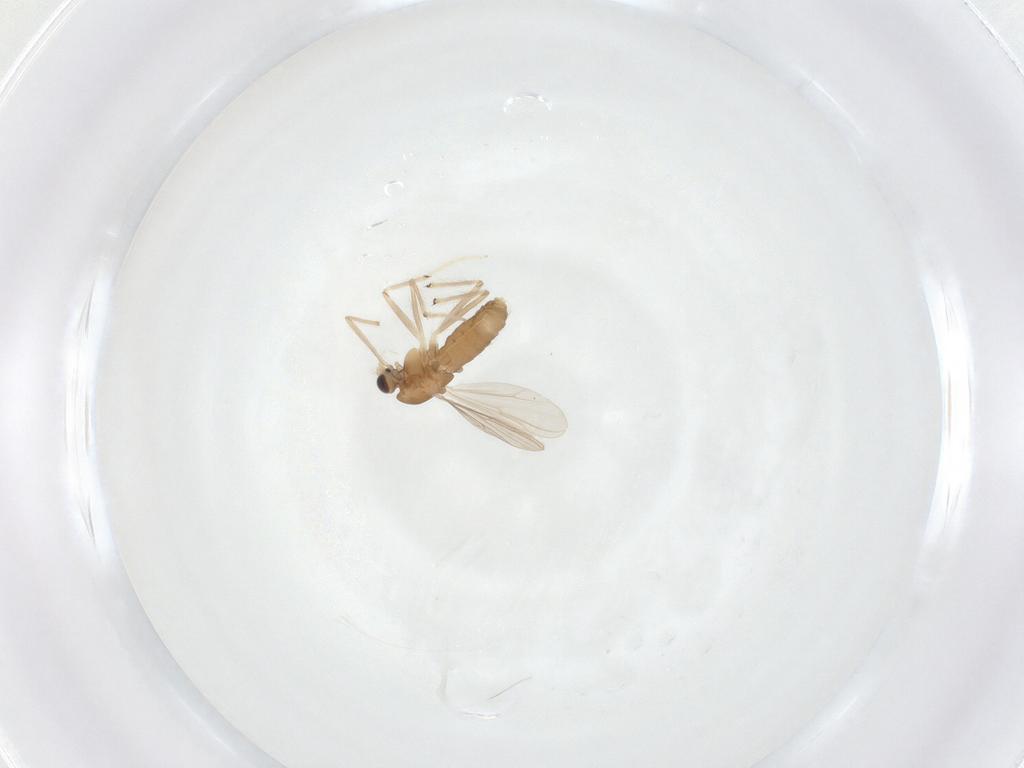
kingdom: Animalia
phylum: Arthropoda
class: Insecta
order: Diptera
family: Chironomidae
